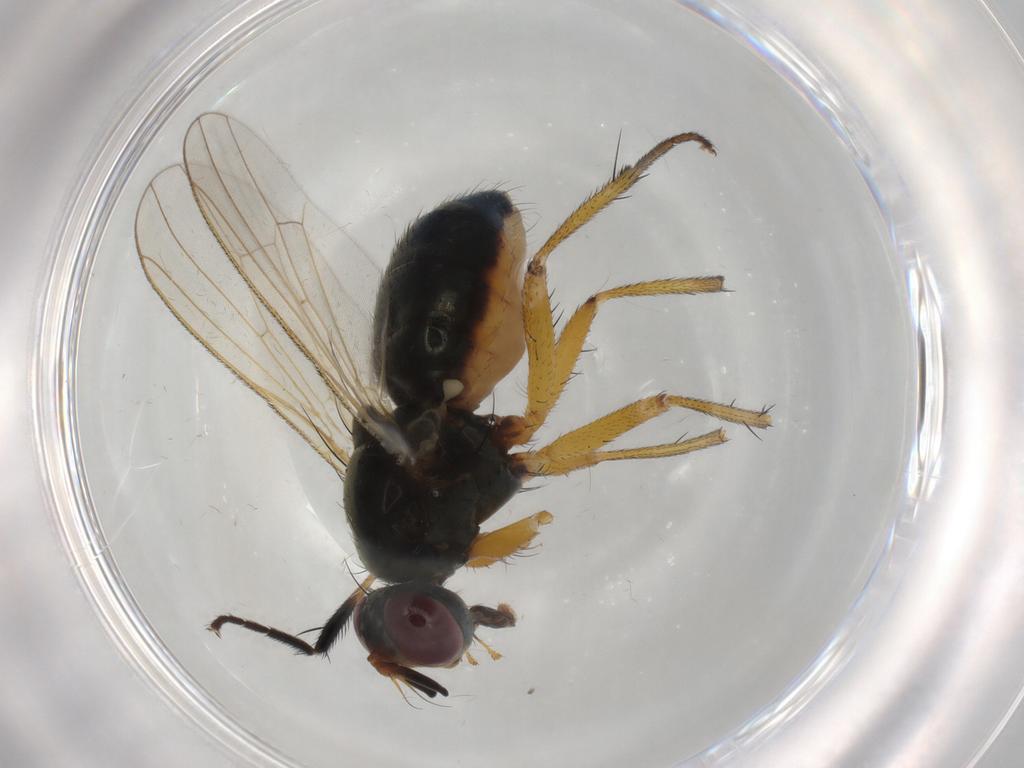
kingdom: Animalia
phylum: Arthropoda
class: Insecta
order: Diptera
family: Muscidae
